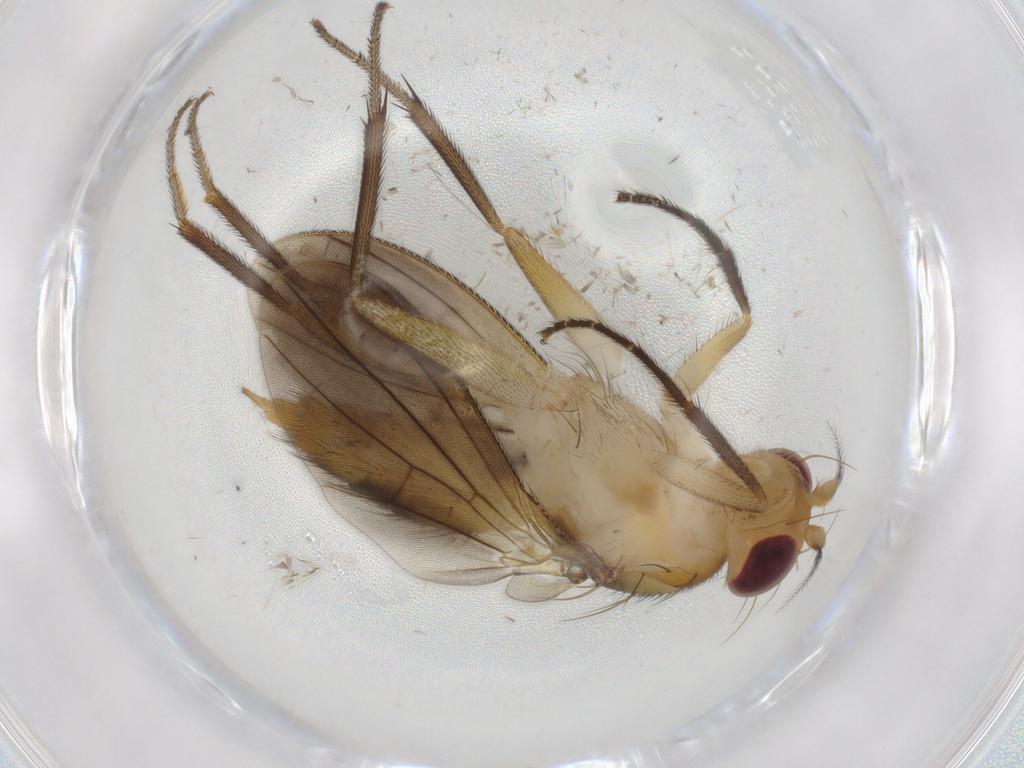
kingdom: Animalia
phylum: Arthropoda
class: Insecta
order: Diptera
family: Clusiidae
